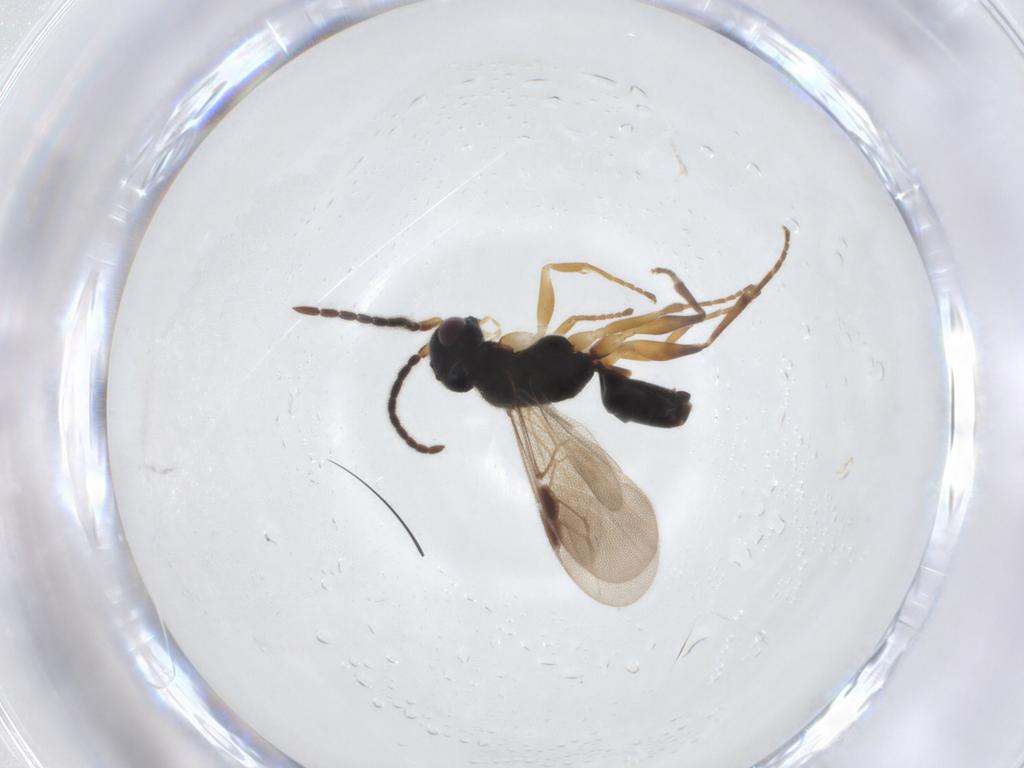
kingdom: Animalia
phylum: Arthropoda
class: Insecta
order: Hymenoptera
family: Dryinidae
